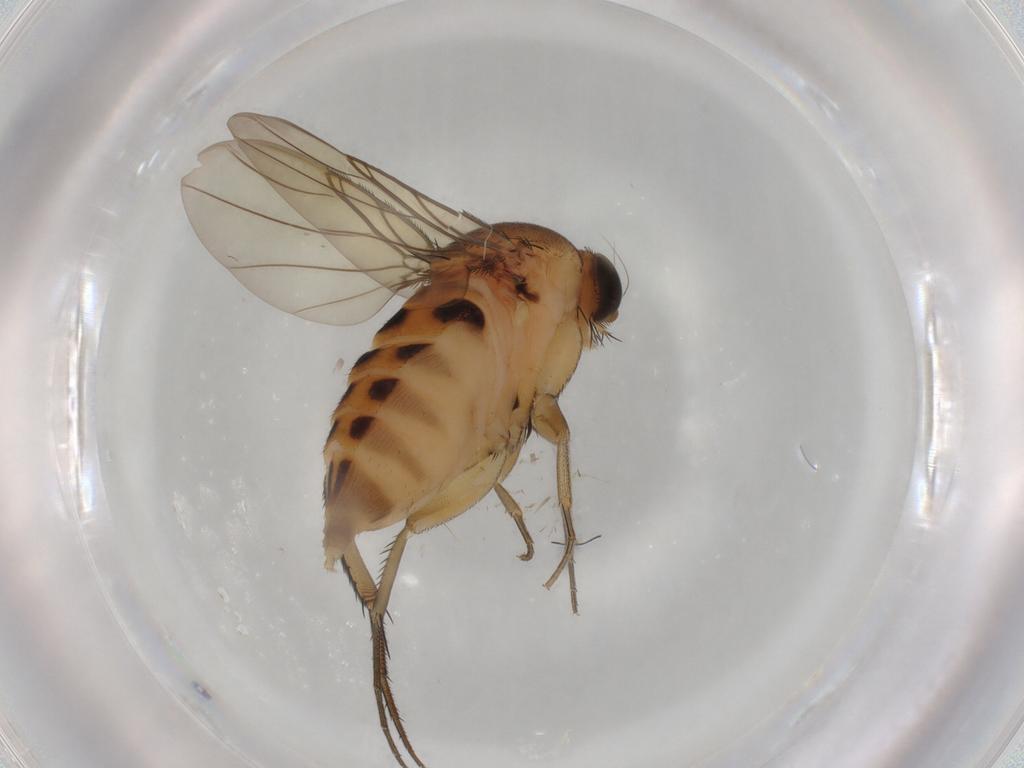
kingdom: Animalia
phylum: Arthropoda
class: Insecta
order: Diptera
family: Phoridae
